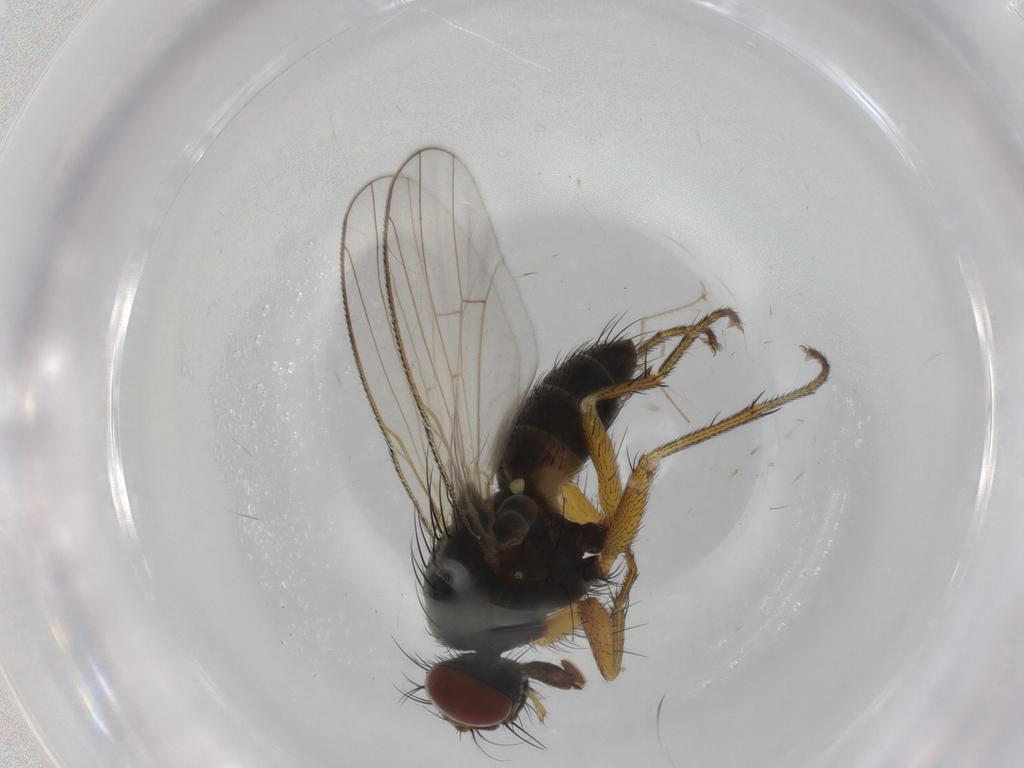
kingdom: Animalia
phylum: Arthropoda
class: Insecta
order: Diptera
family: Muscidae
